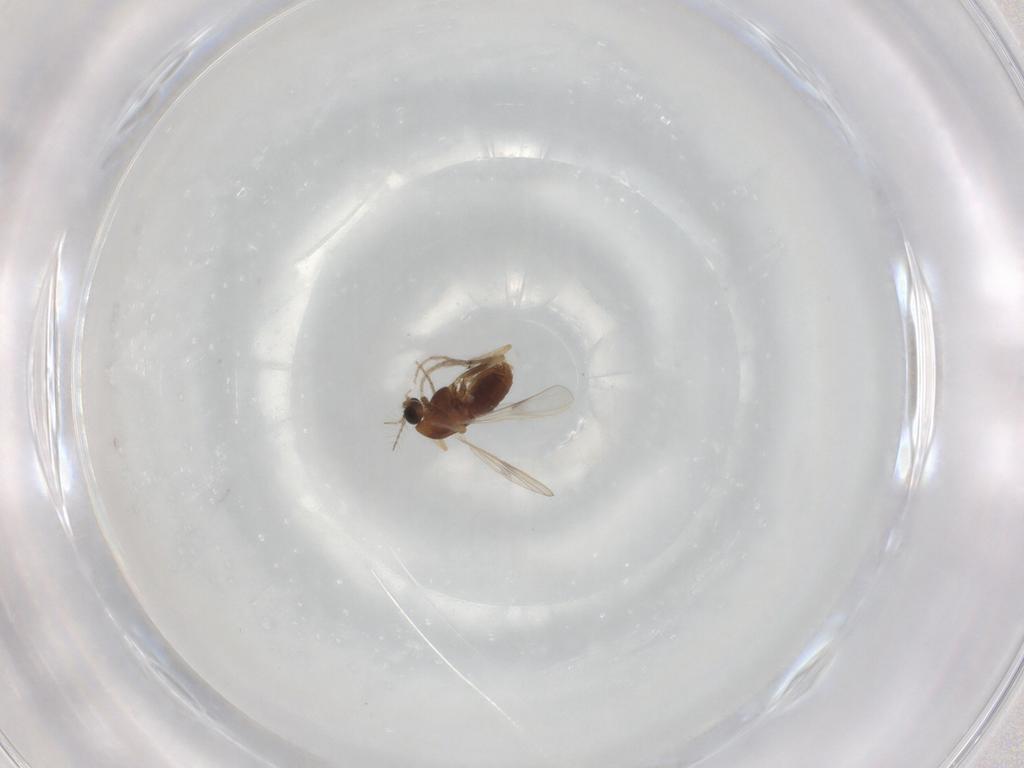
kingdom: Animalia
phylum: Arthropoda
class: Insecta
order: Diptera
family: Chironomidae
